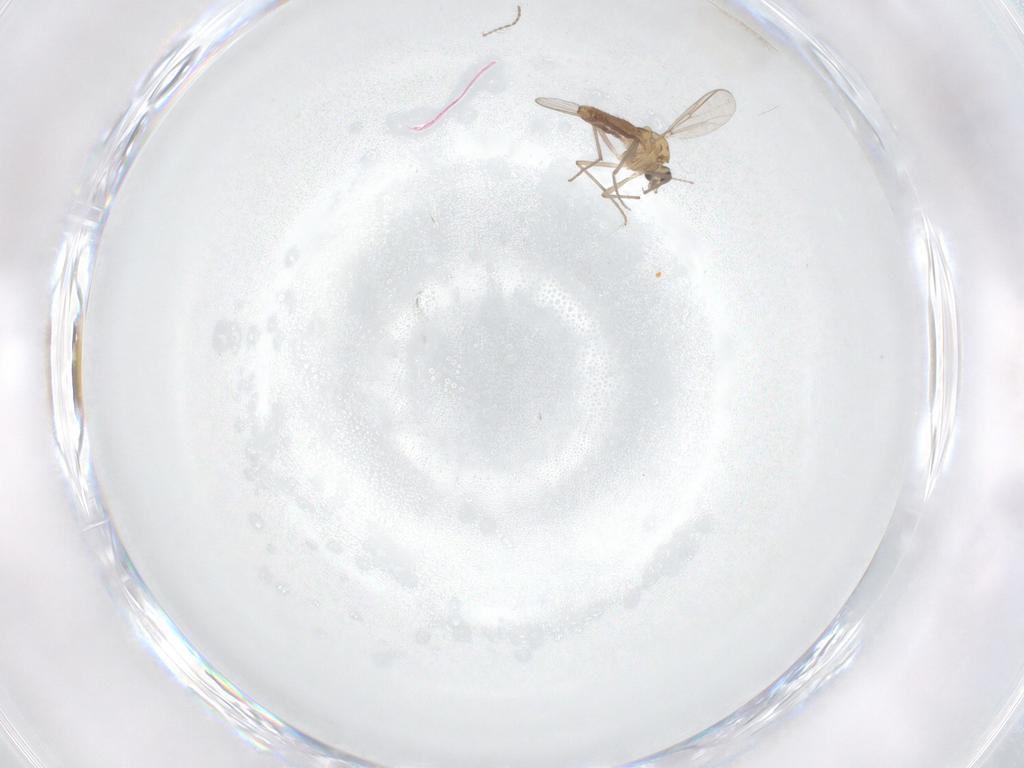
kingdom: Animalia
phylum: Arthropoda
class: Insecta
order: Diptera
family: Chironomidae
